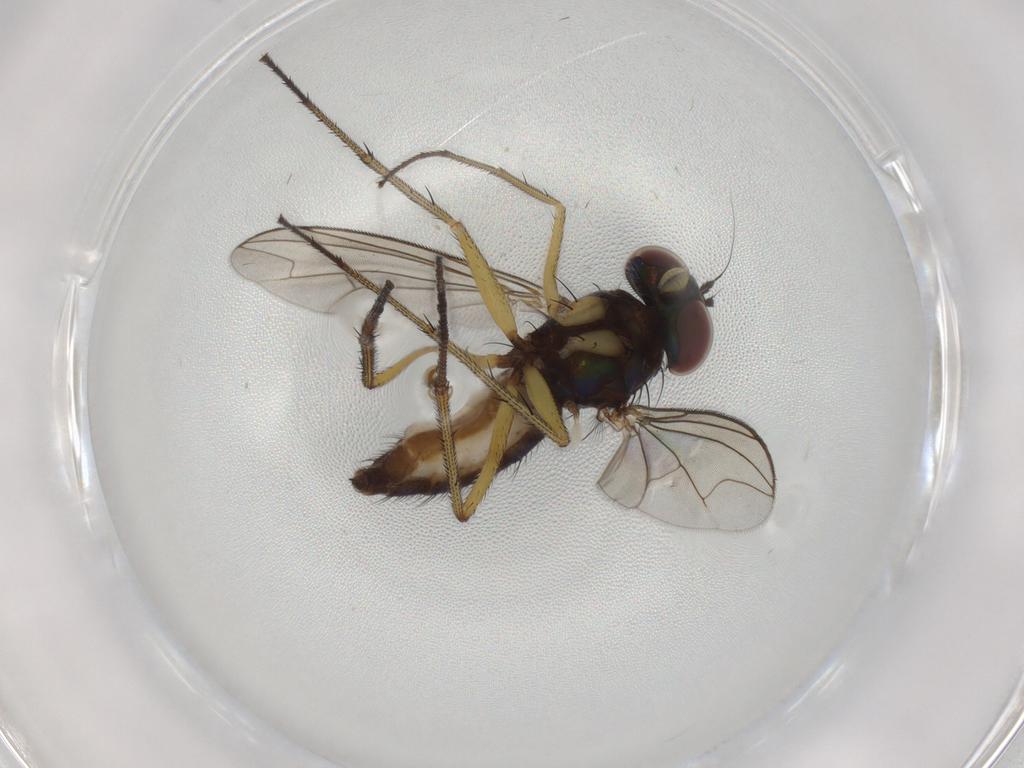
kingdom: Animalia
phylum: Arthropoda
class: Insecta
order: Diptera
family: Dolichopodidae
